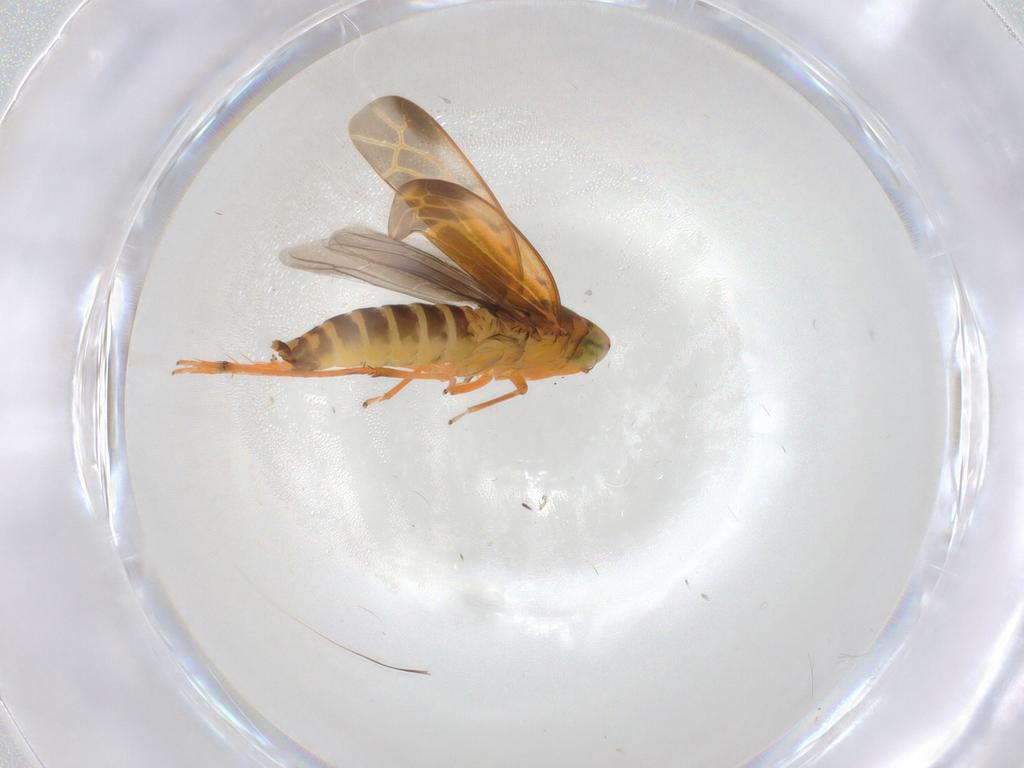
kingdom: Animalia
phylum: Arthropoda
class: Insecta
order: Hemiptera
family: Cicadellidae
